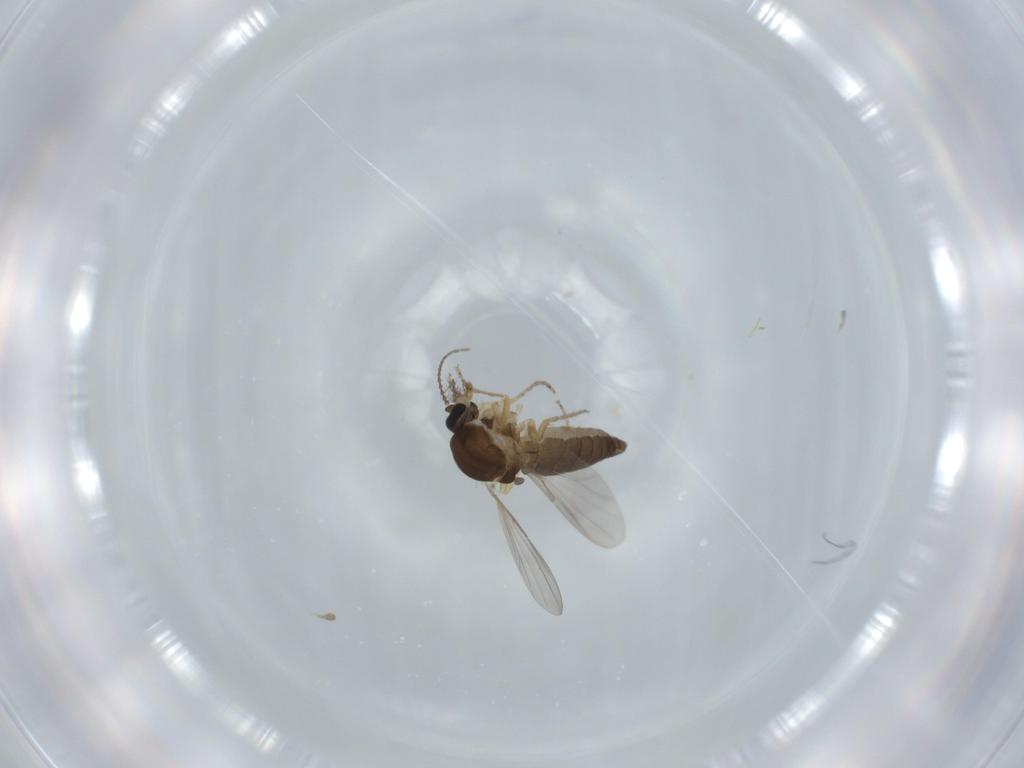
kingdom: Animalia
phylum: Arthropoda
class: Insecta
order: Diptera
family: Ceratopogonidae
